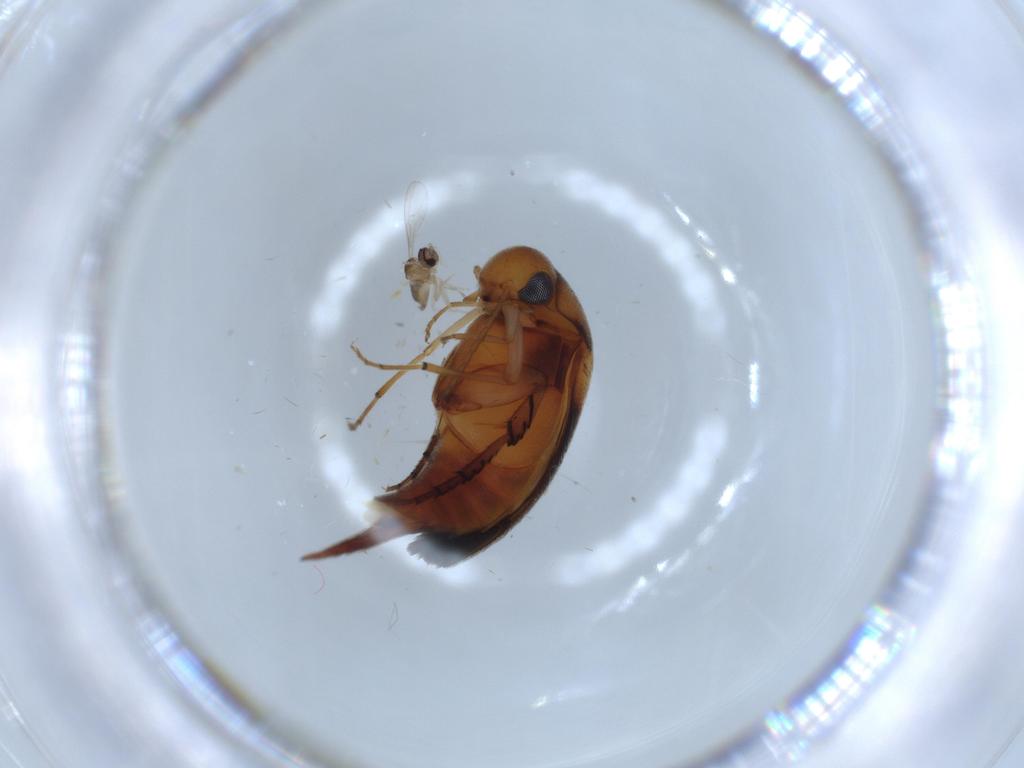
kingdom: Animalia
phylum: Arthropoda
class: Insecta
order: Coleoptera
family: Mordellidae
